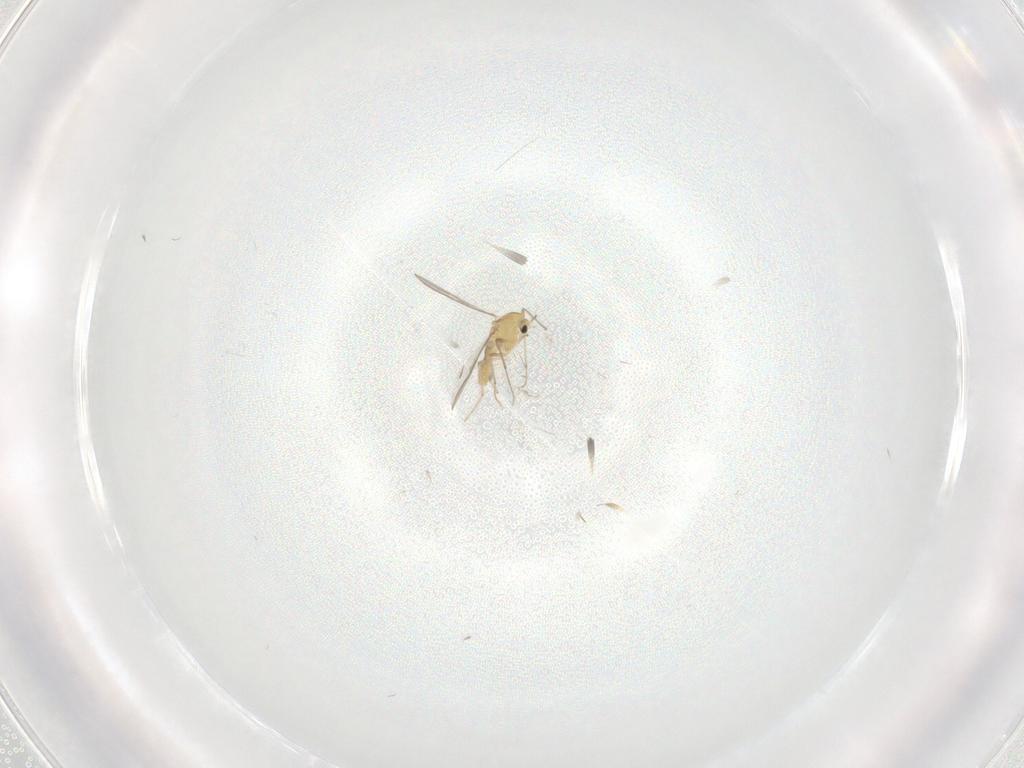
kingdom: Animalia
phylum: Arthropoda
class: Insecta
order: Diptera
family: Chironomidae
